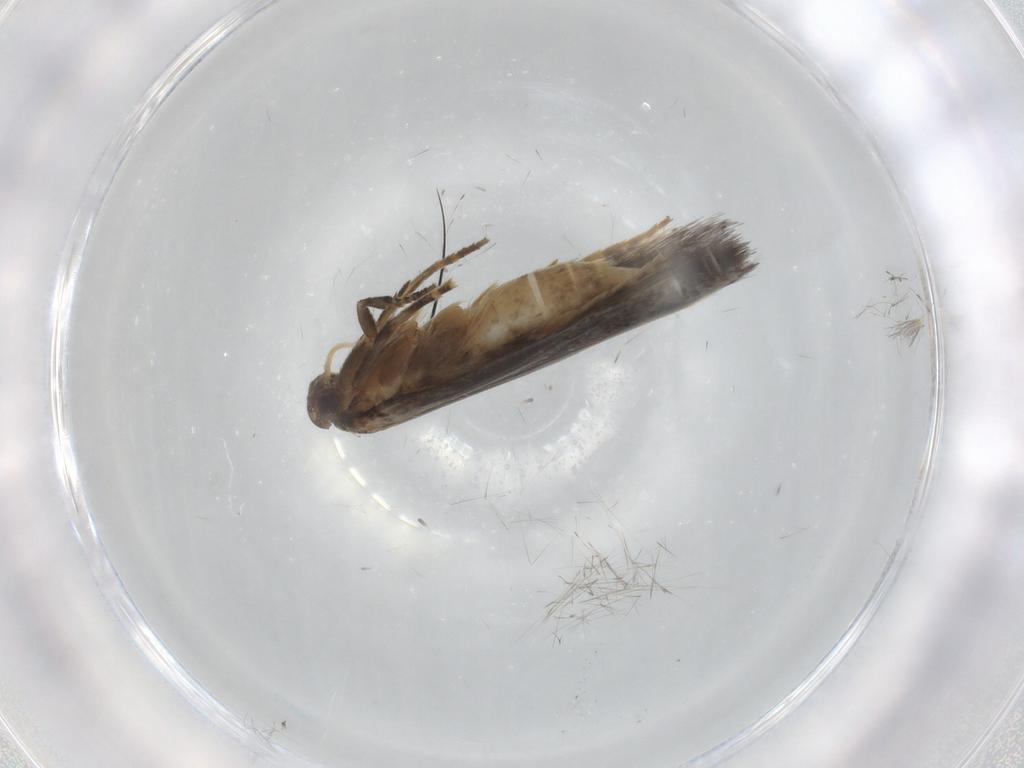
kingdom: Animalia
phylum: Arthropoda
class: Insecta
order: Lepidoptera
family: Elachistidae
